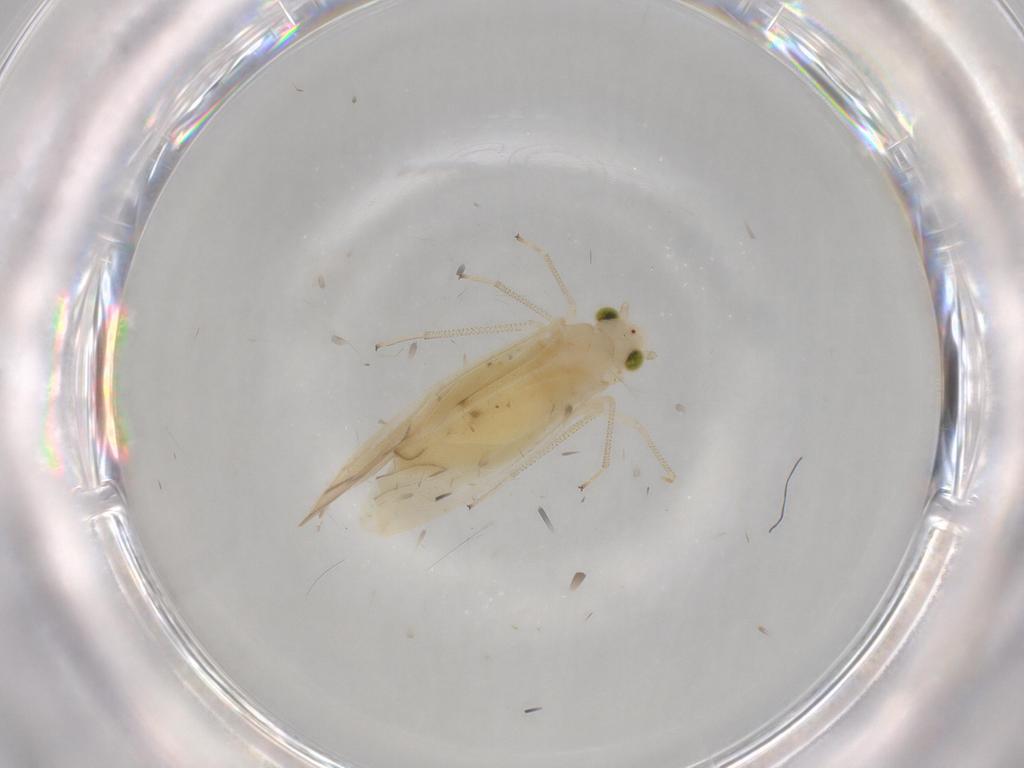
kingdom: Animalia
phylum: Arthropoda
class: Insecta
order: Psocodea
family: Caeciliusidae
